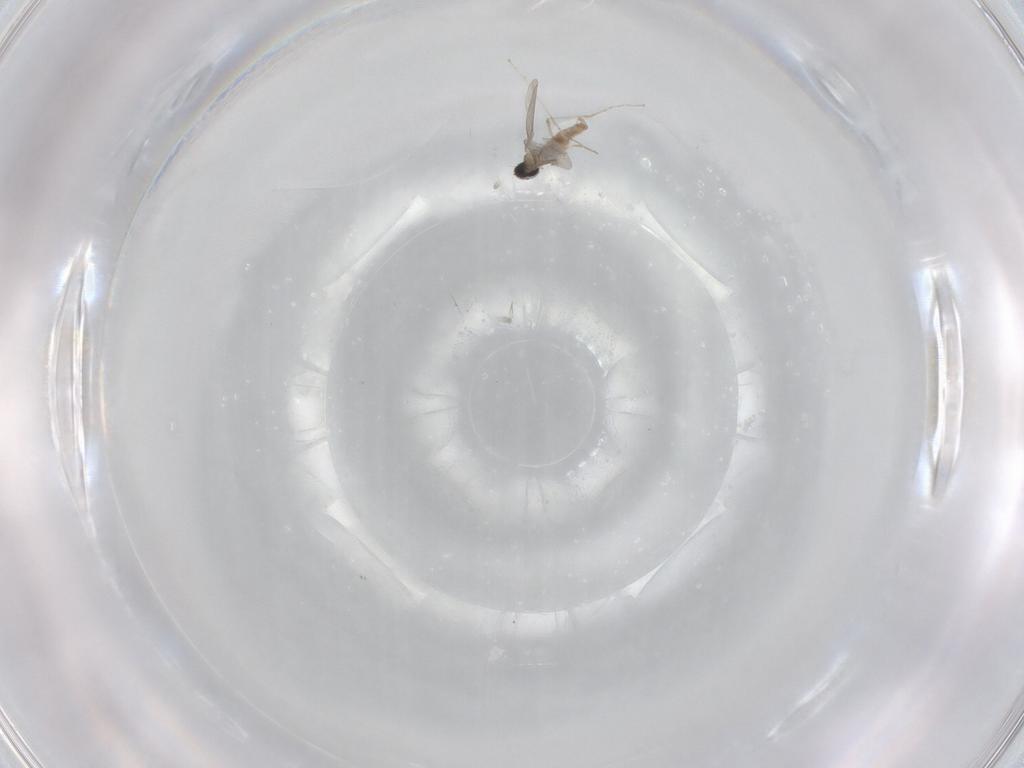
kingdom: Animalia
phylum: Arthropoda
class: Insecta
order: Diptera
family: Cecidomyiidae
